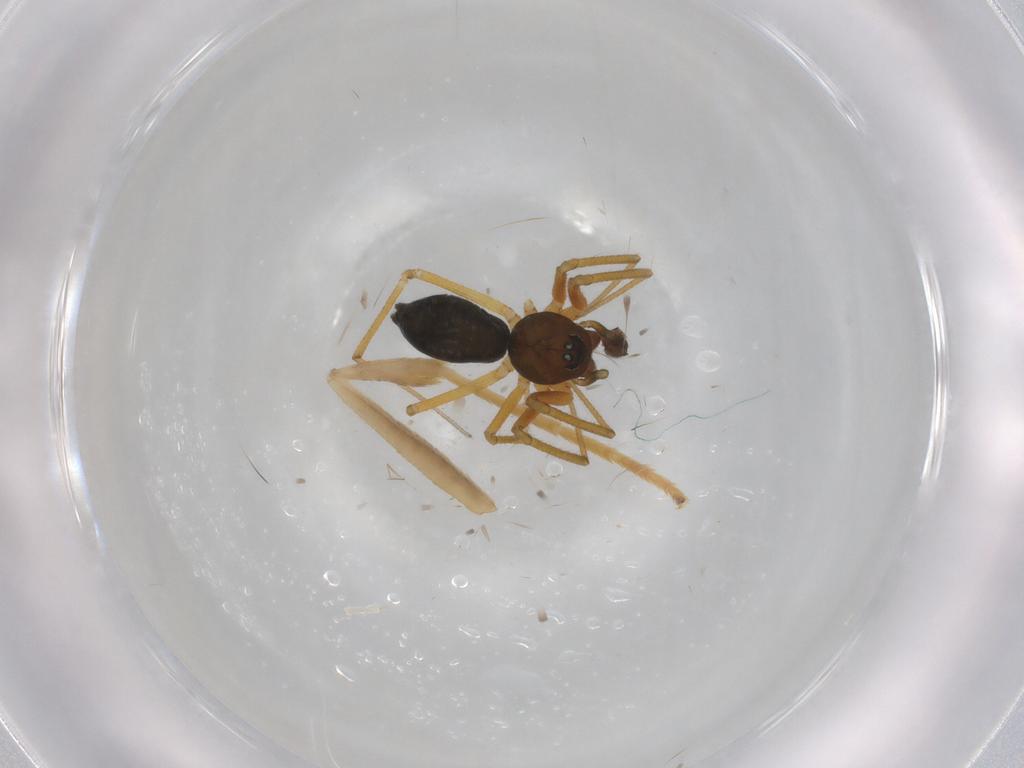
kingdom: Animalia
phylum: Arthropoda
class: Arachnida
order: Araneae
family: Linyphiidae
